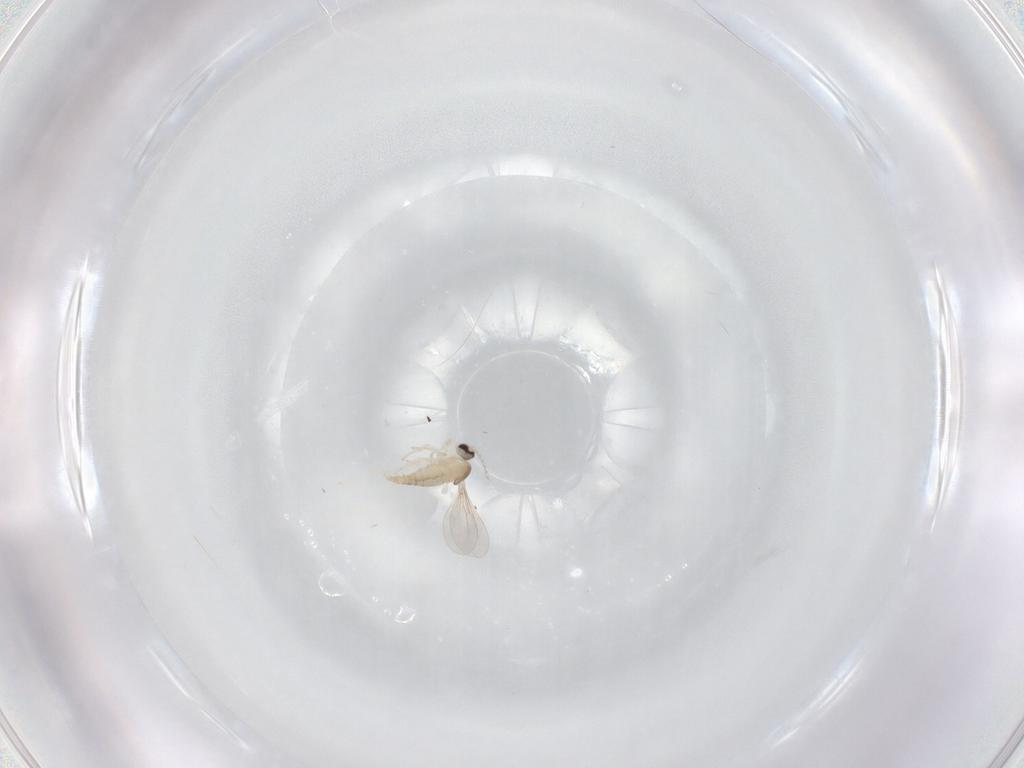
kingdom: Animalia
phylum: Arthropoda
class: Insecta
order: Diptera
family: Cecidomyiidae
